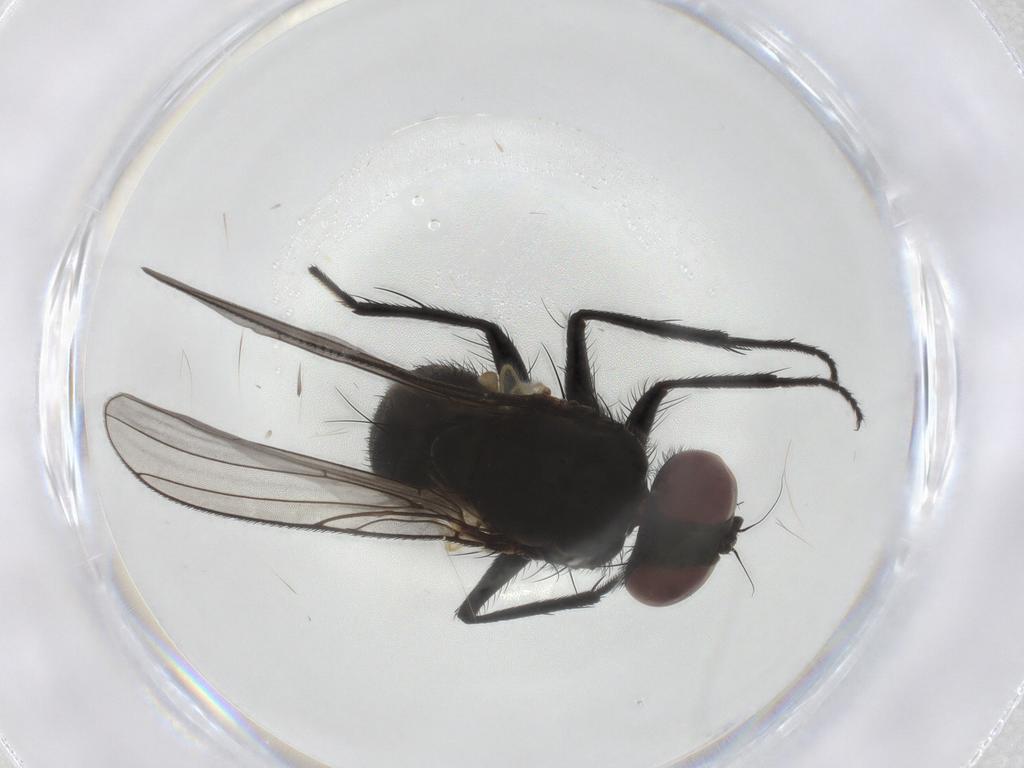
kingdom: Animalia
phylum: Arthropoda
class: Insecta
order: Diptera
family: Muscidae
